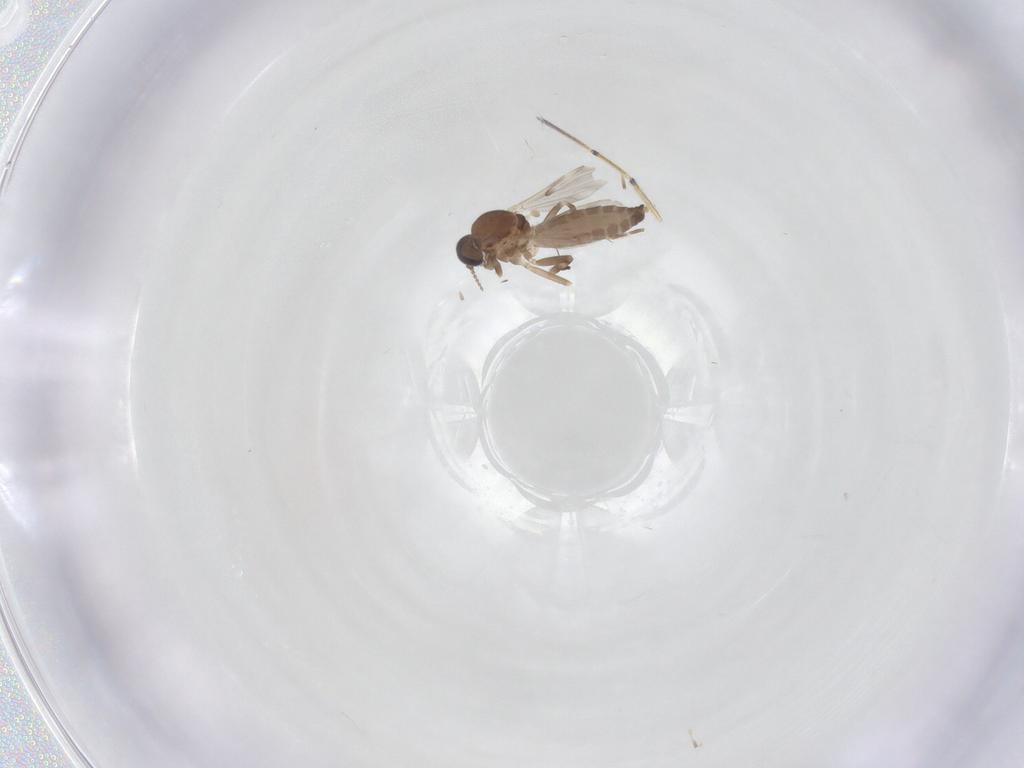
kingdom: Animalia
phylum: Arthropoda
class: Insecta
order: Diptera
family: Ceratopogonidae
